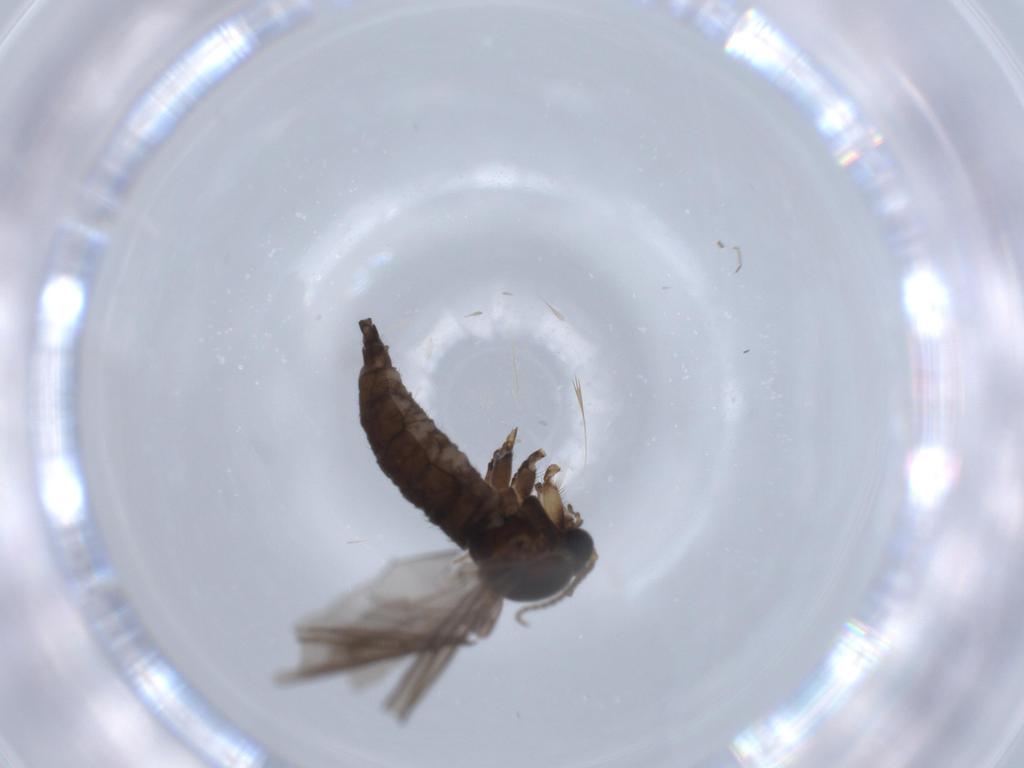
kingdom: Animalia
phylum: Arthropoda
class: Insecta
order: Diptera
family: Sciaridae
